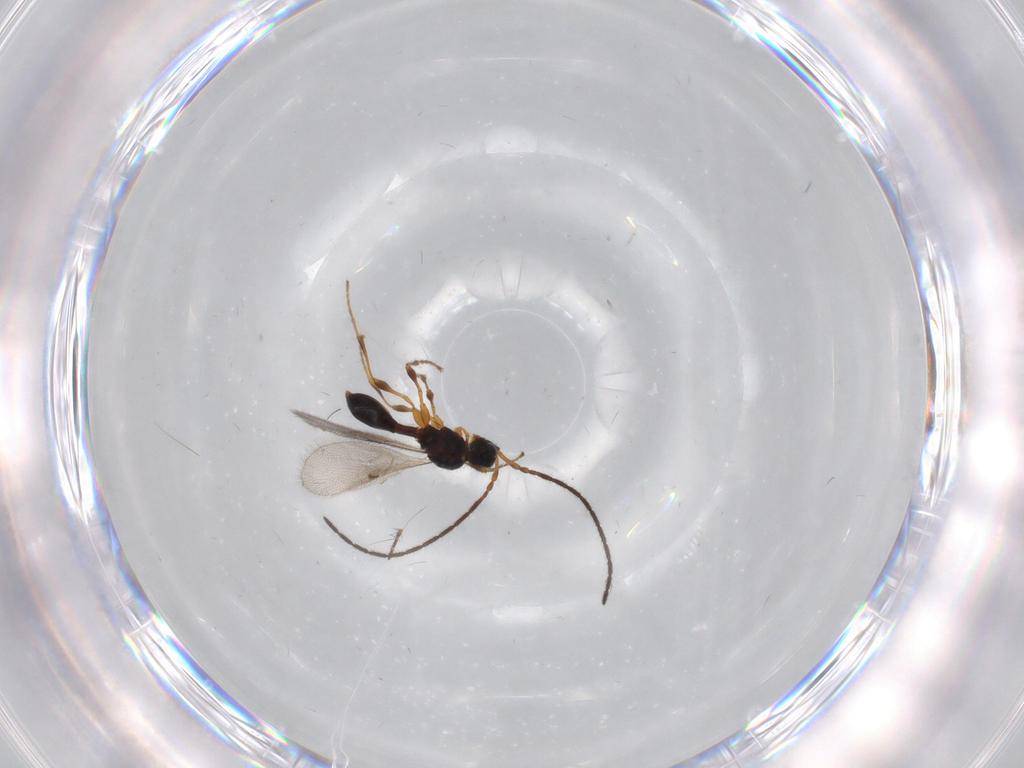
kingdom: Animalia
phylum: Arthropoda
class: Insecta
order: Hymenoptera
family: Diapriidae
